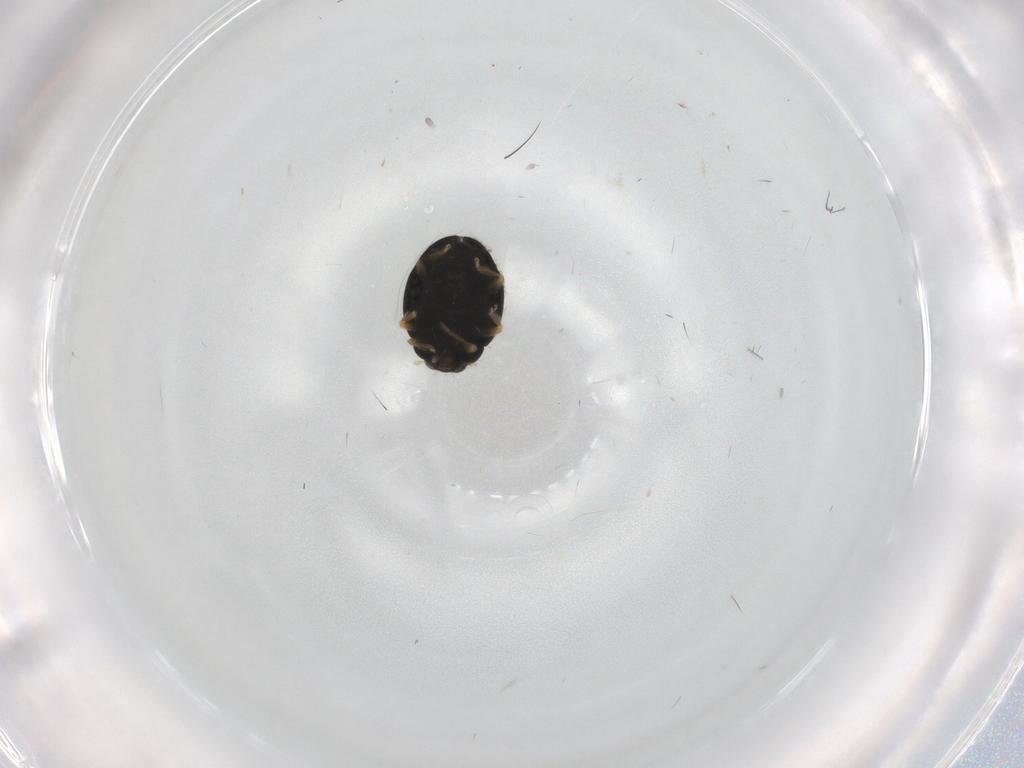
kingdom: Animalia
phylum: Arthropoda
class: Insecta
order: Coleoptera
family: Coccinellidae
